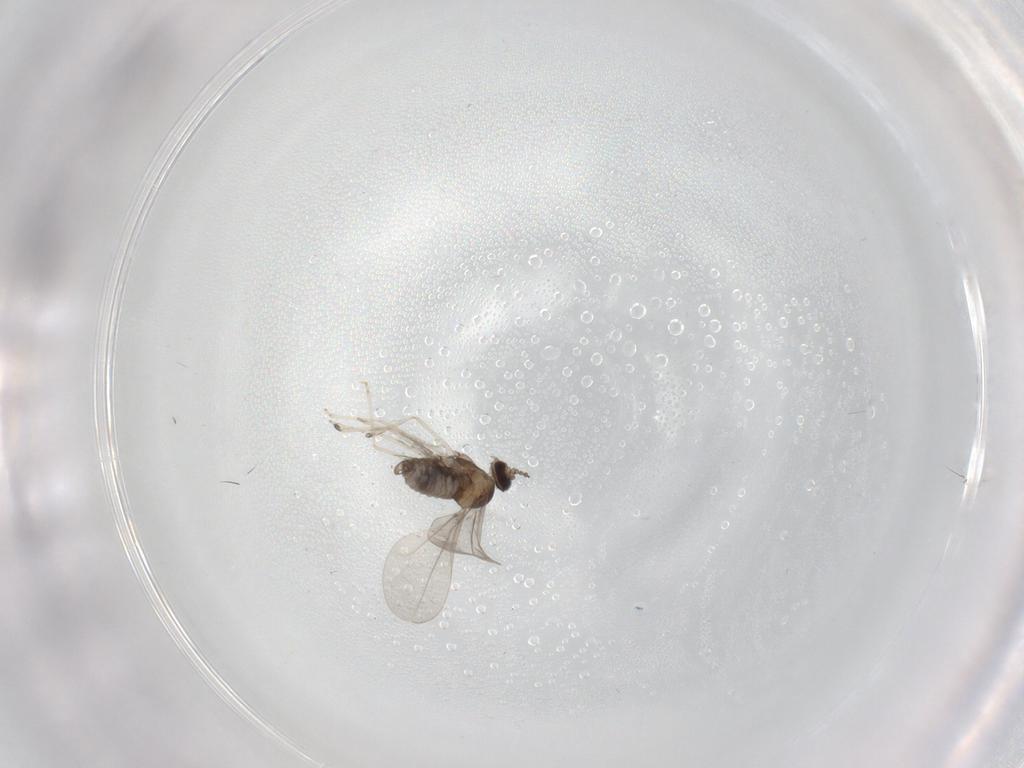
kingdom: Animalia
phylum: Arthropoda
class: Insecta
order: Diptera
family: Cecidomyiidae
